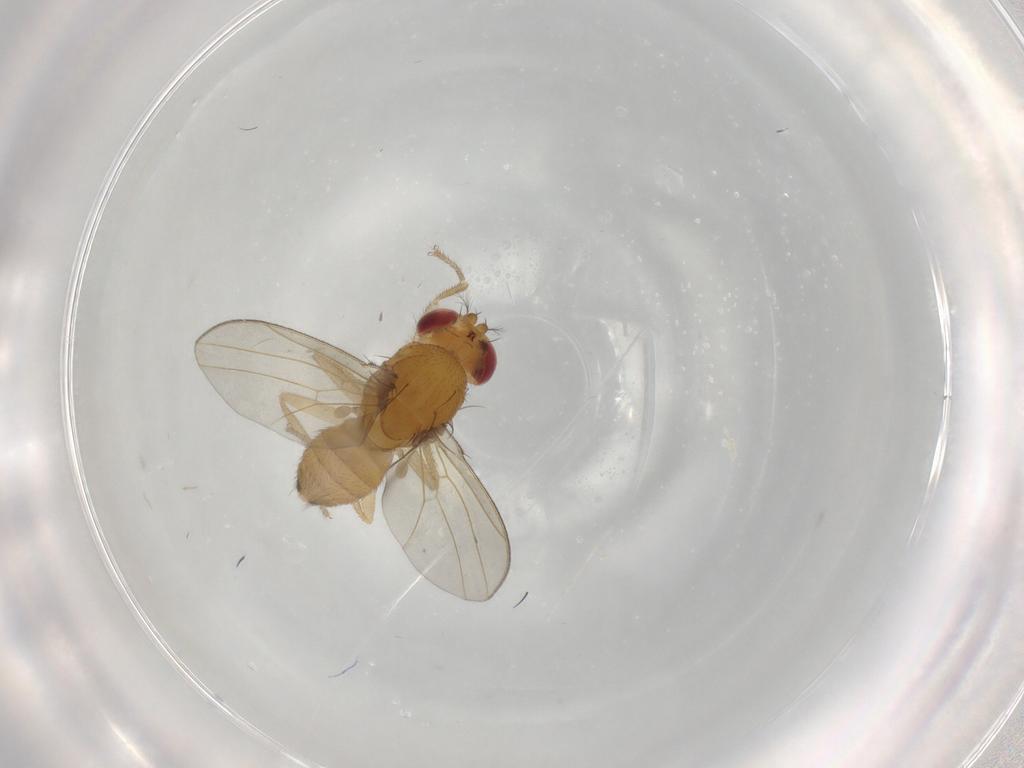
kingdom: Animalia
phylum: Arthropoda
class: Insecta
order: Diptera
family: Drosophilidae
